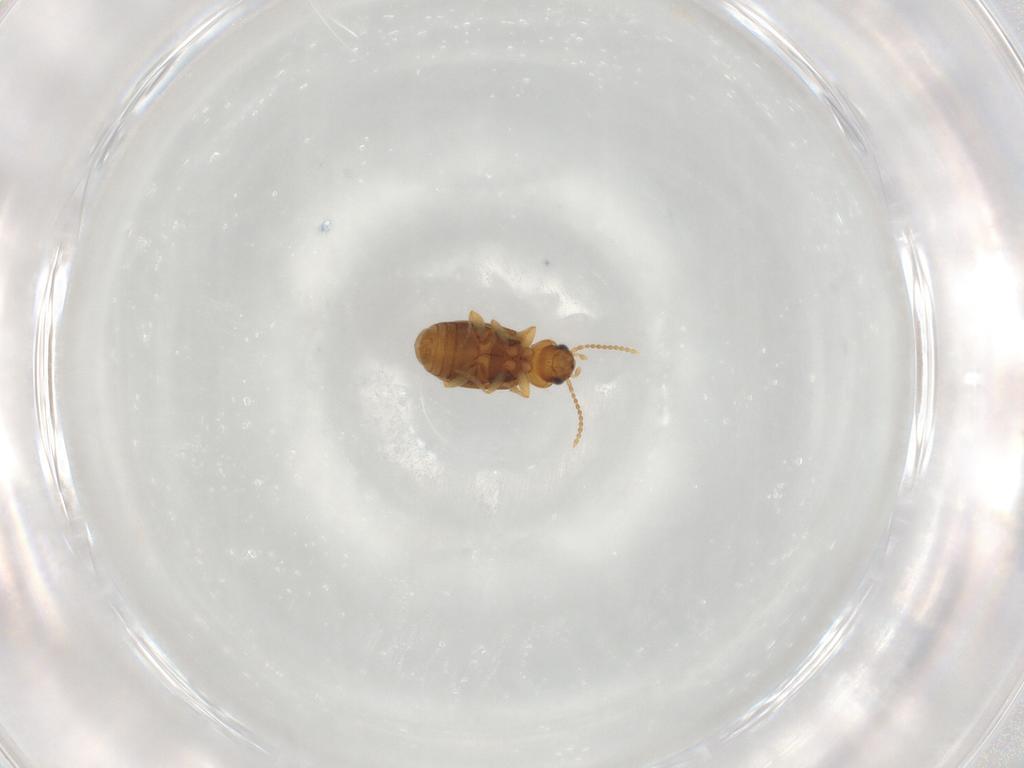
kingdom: Animalia
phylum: Arthropoda
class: Insecta
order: Coleoptera
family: Carabidae
